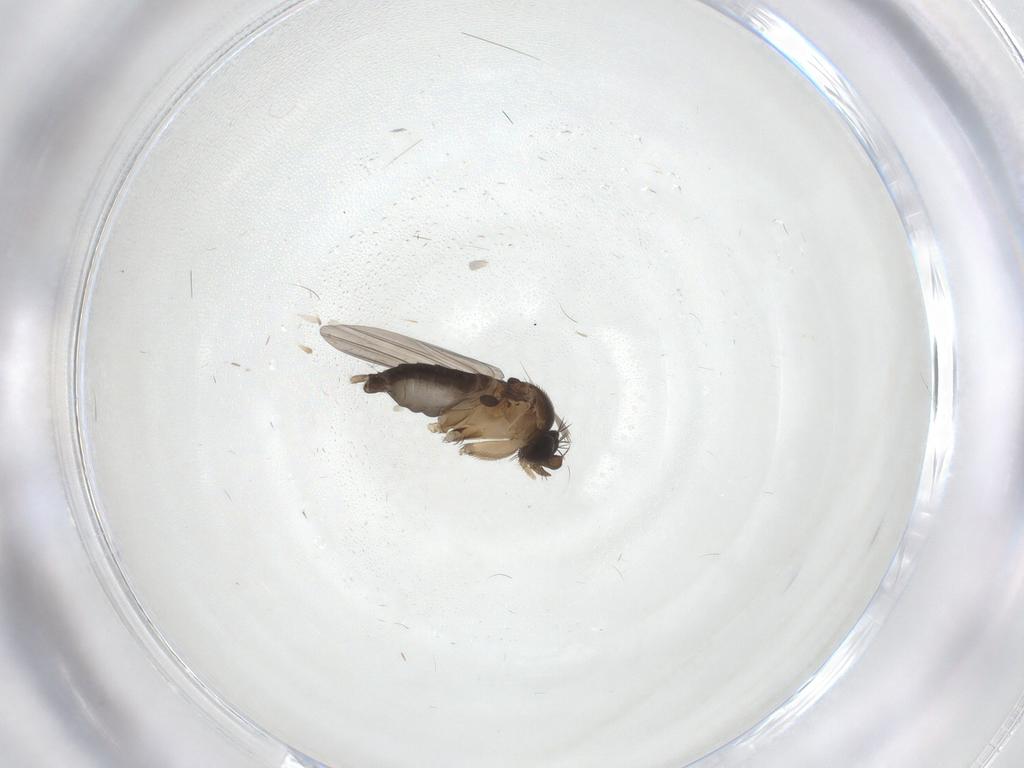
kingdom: Animalia
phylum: Arthropoda
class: Insecta
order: Diptera
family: Phoridae
